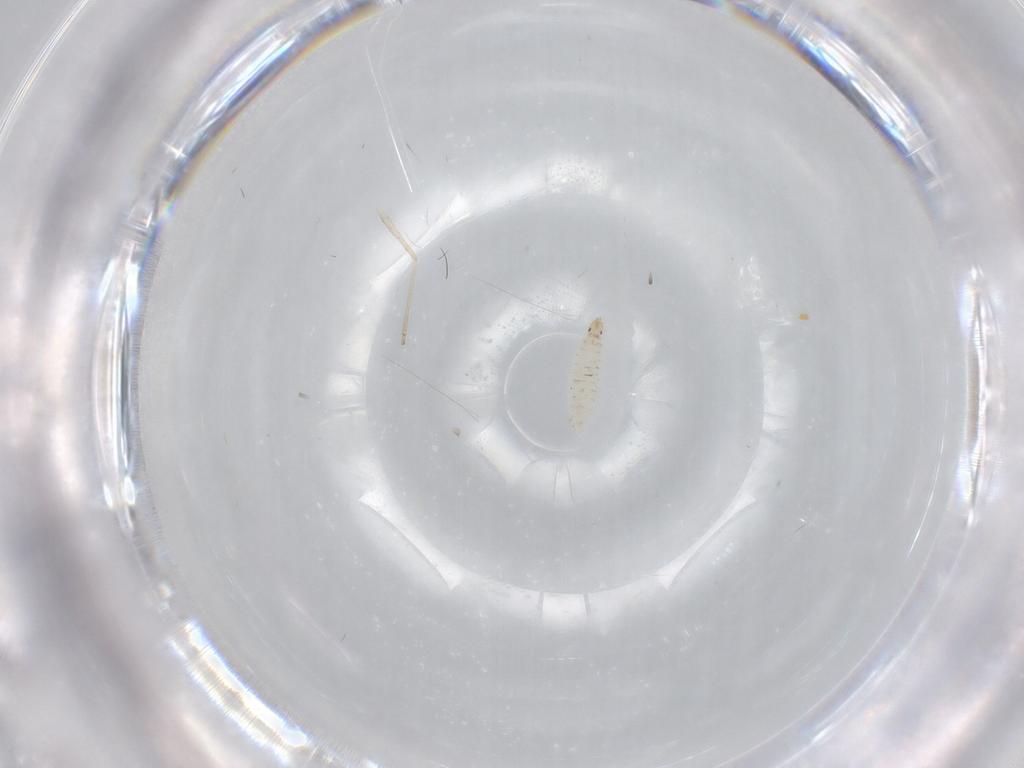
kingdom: Animalia
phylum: Arthropoda
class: Insecta
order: Diptera
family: Cecidomyiidae
